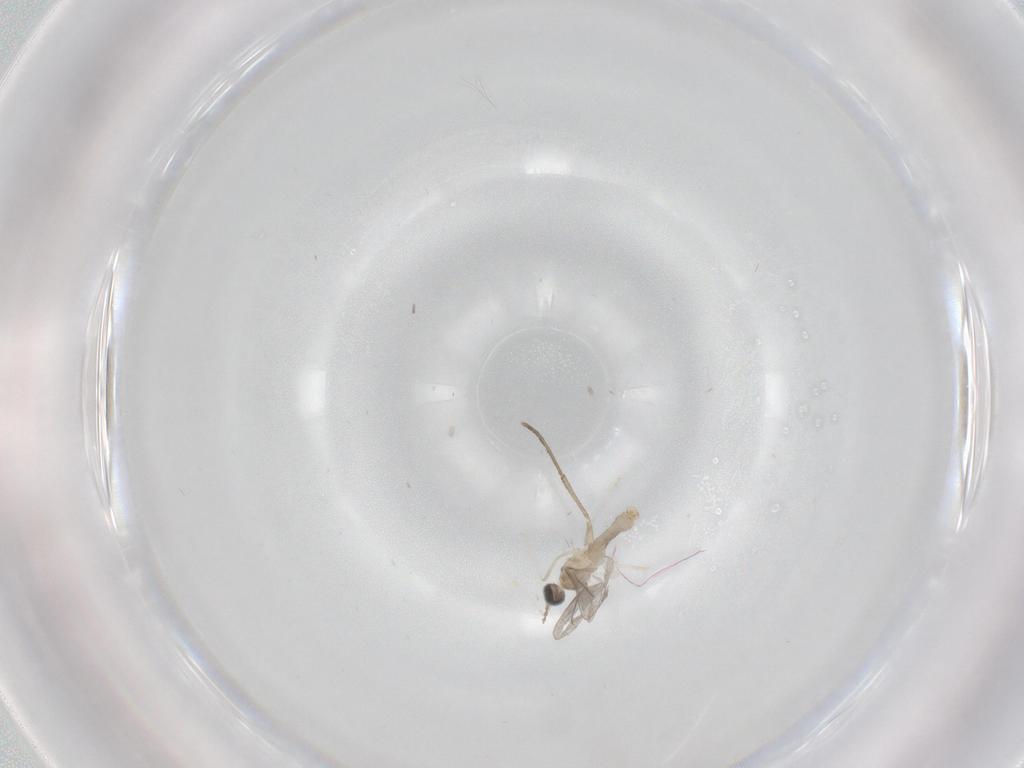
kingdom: Animalia
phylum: Arthropoda
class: Insecta
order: Diptera
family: Cecidomyiidae
